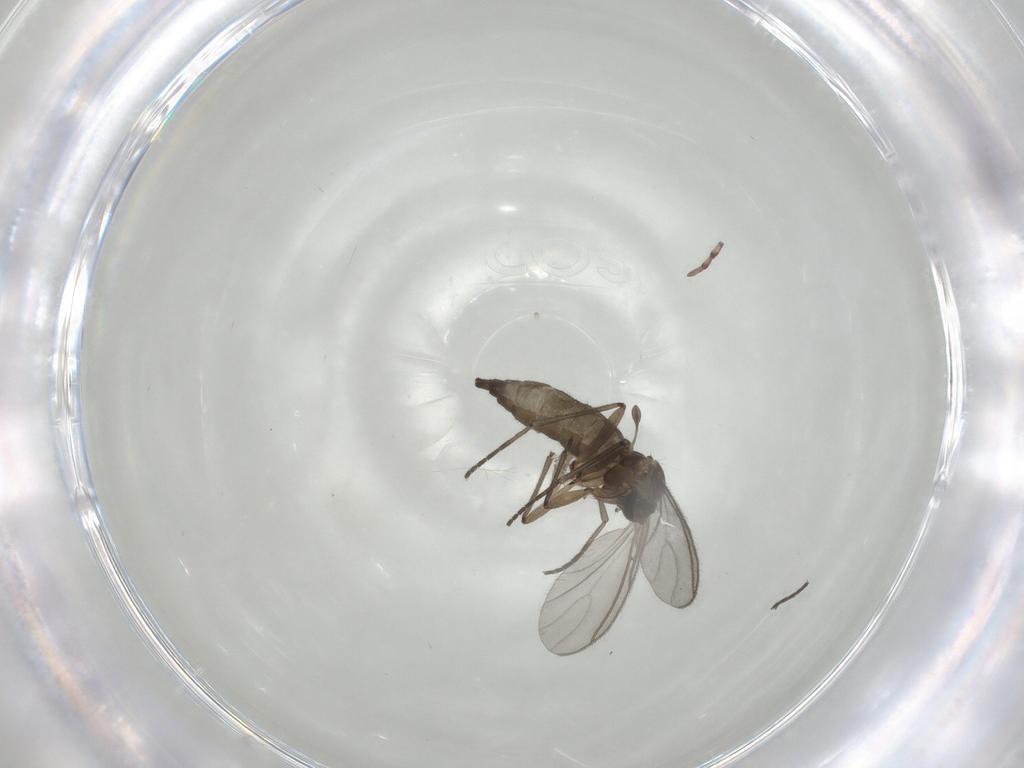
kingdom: Animalia
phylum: Arthropoda
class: Insecta
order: Diptera
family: Sciaridae
